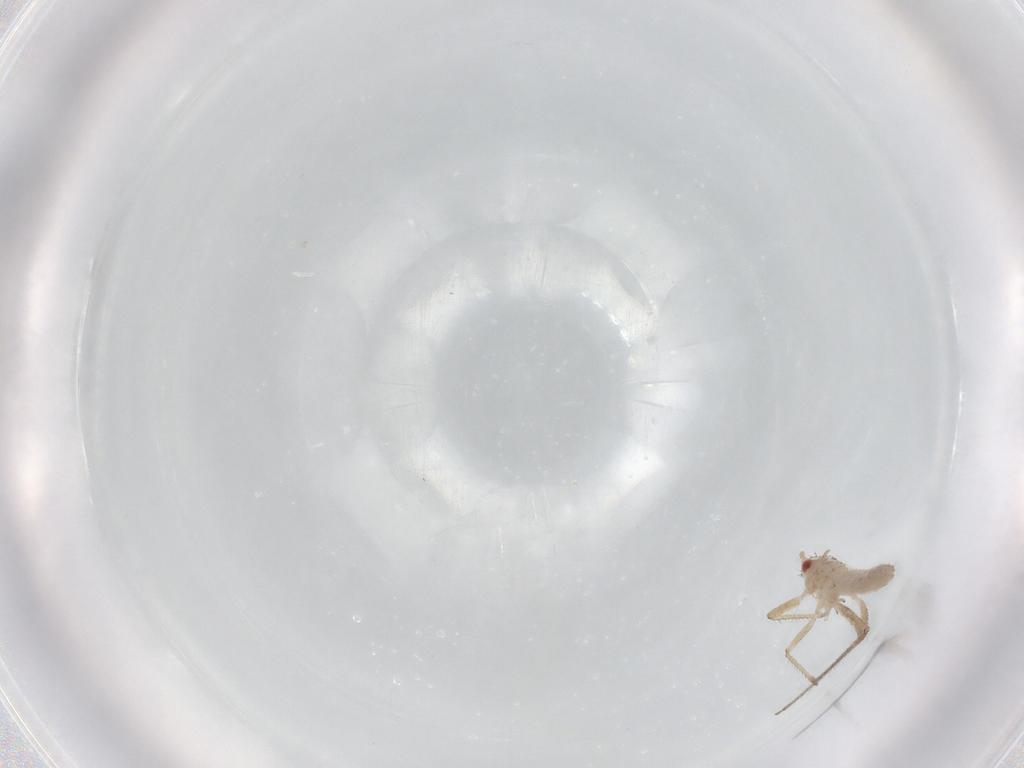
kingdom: Animalia
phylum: Arthropoda
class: Insecta
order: Hemiptera
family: Aphididae
